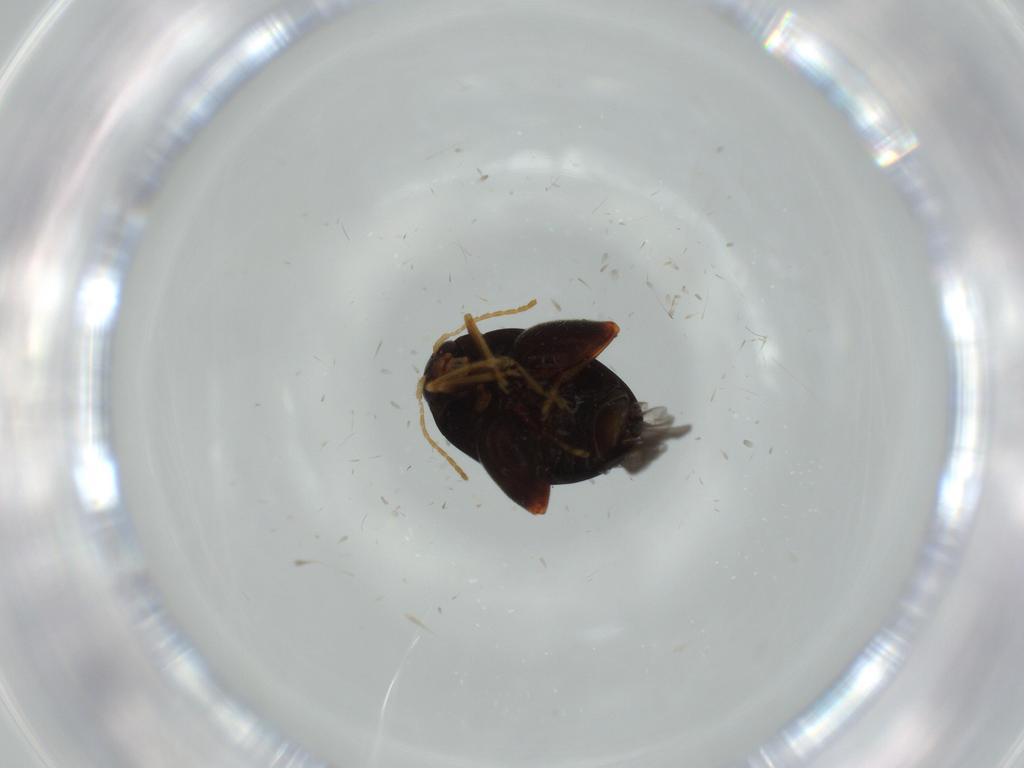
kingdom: Animalia
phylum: Arthropoda
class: Insecta
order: Coleoptera
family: Chrysomelidae
